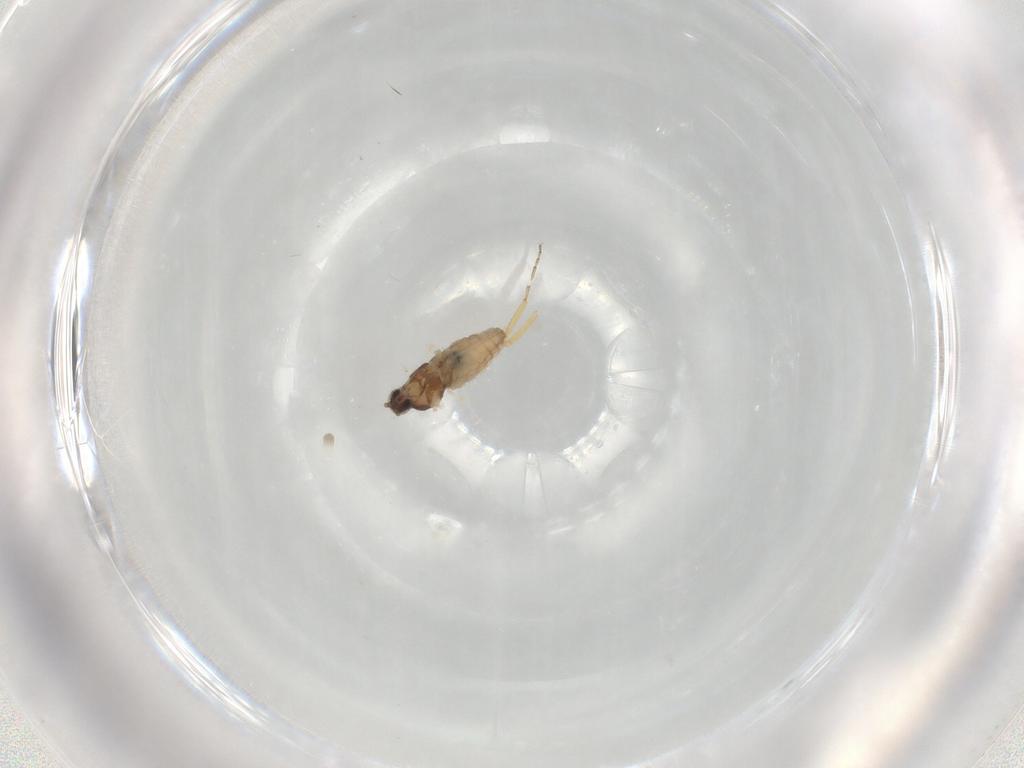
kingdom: Animalia
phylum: Arthropoda
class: Insecta
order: Diptera
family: Cecidomyiidae
